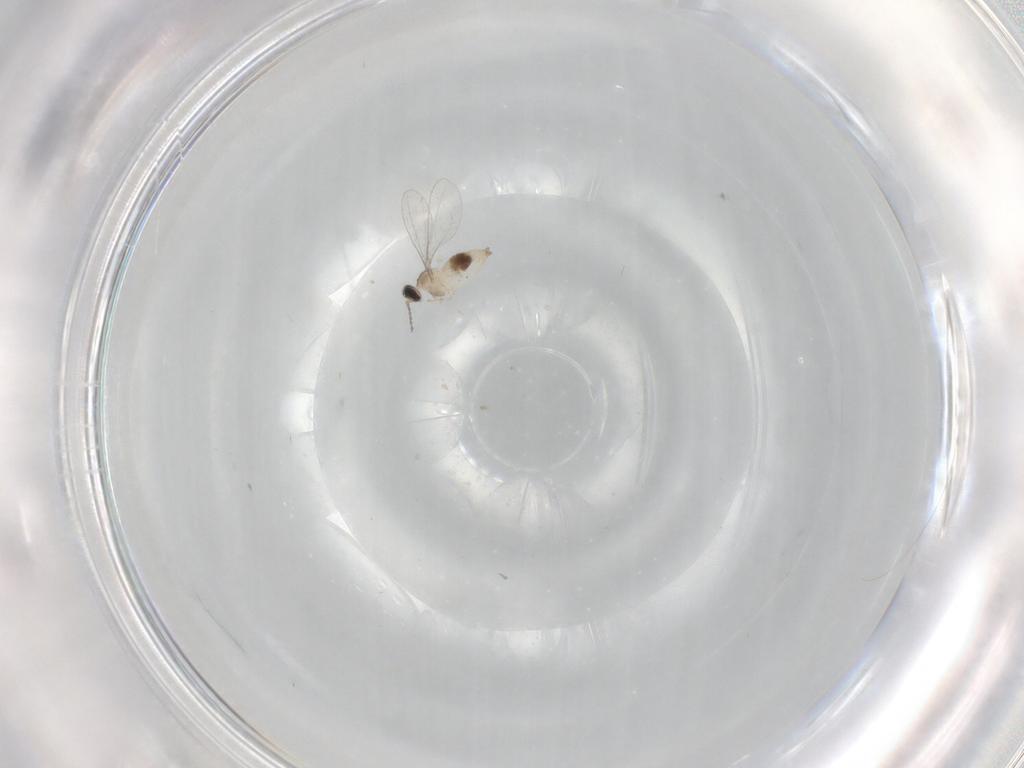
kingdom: Animalia
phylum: Arthropoda
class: Insecta
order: Diptera
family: Cecidomyiidae
